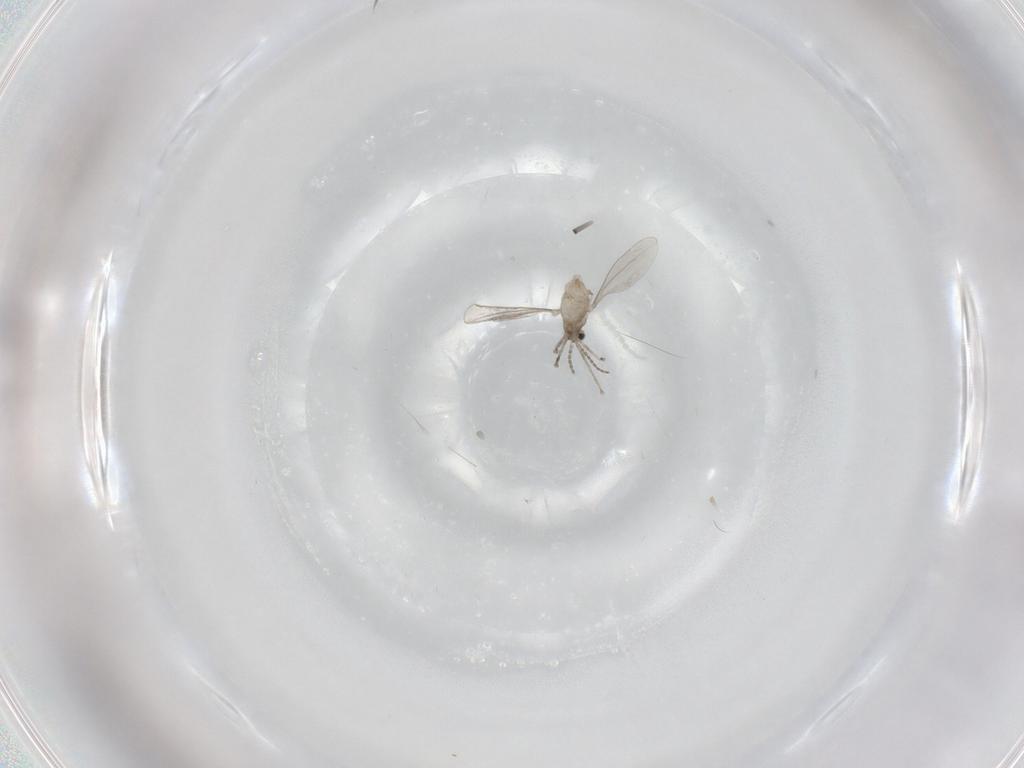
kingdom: Animalia
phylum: Arthropoda
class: Insecta
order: Diptera
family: Cecidomyiidae
